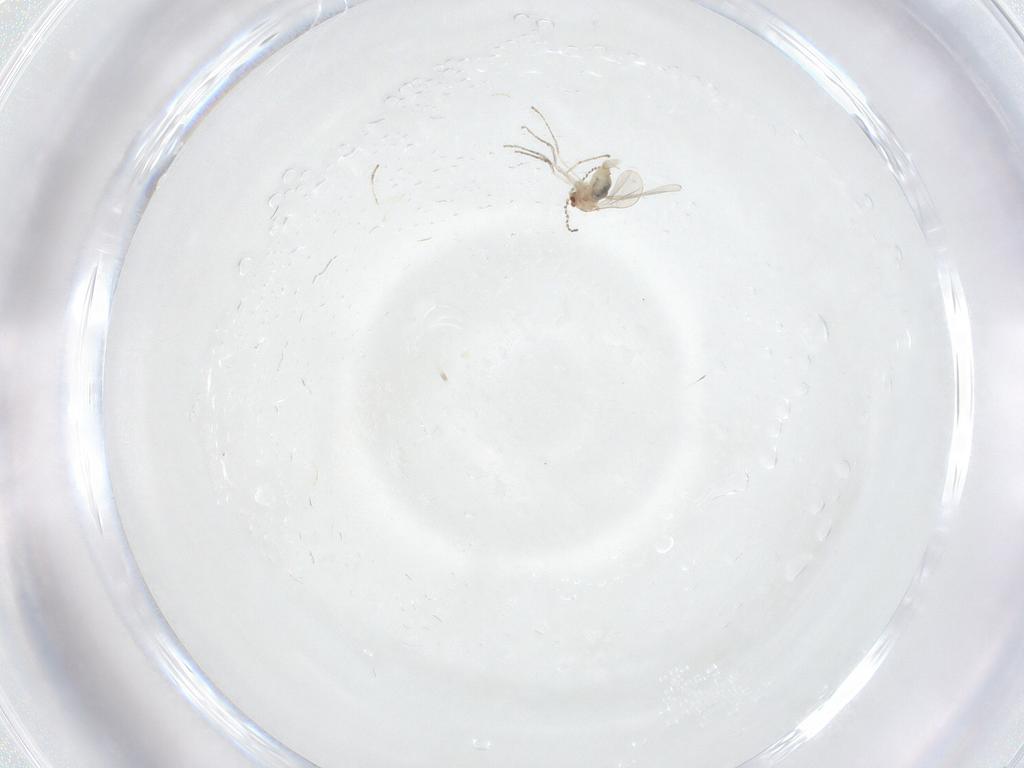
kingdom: Animalia
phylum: Arthropoda
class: Insecta
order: Diptera
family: Cecidomyiidae
